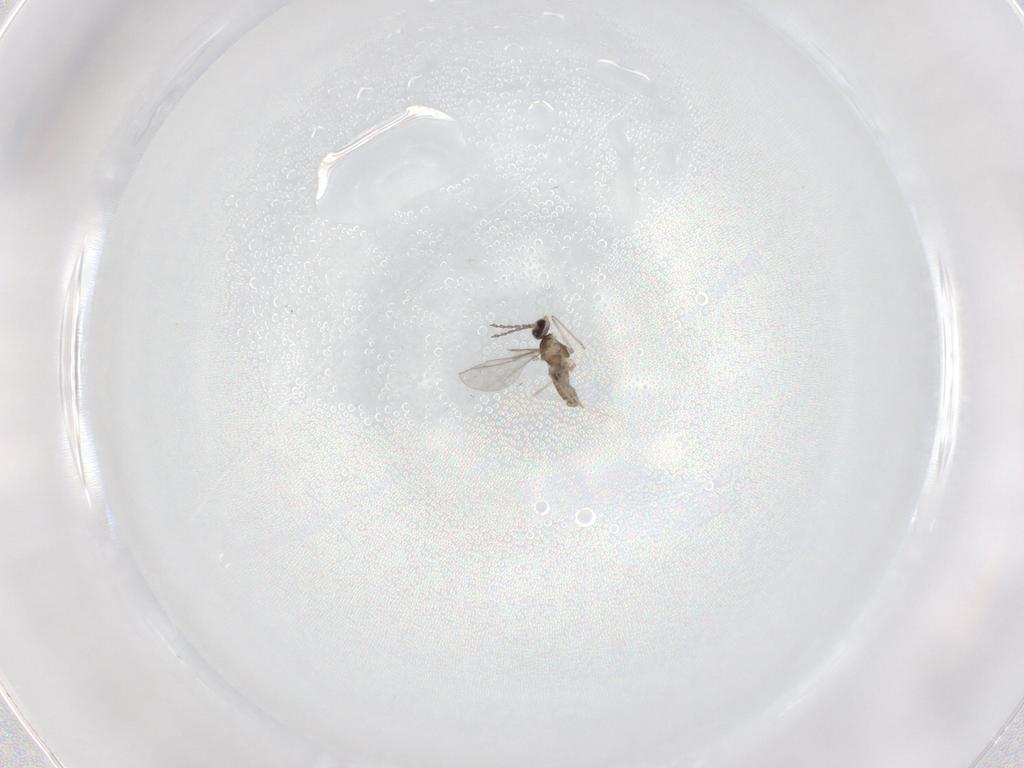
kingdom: Animalia
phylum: Arthropoda
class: Insecta
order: Diptera
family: Cecidomyiidae
